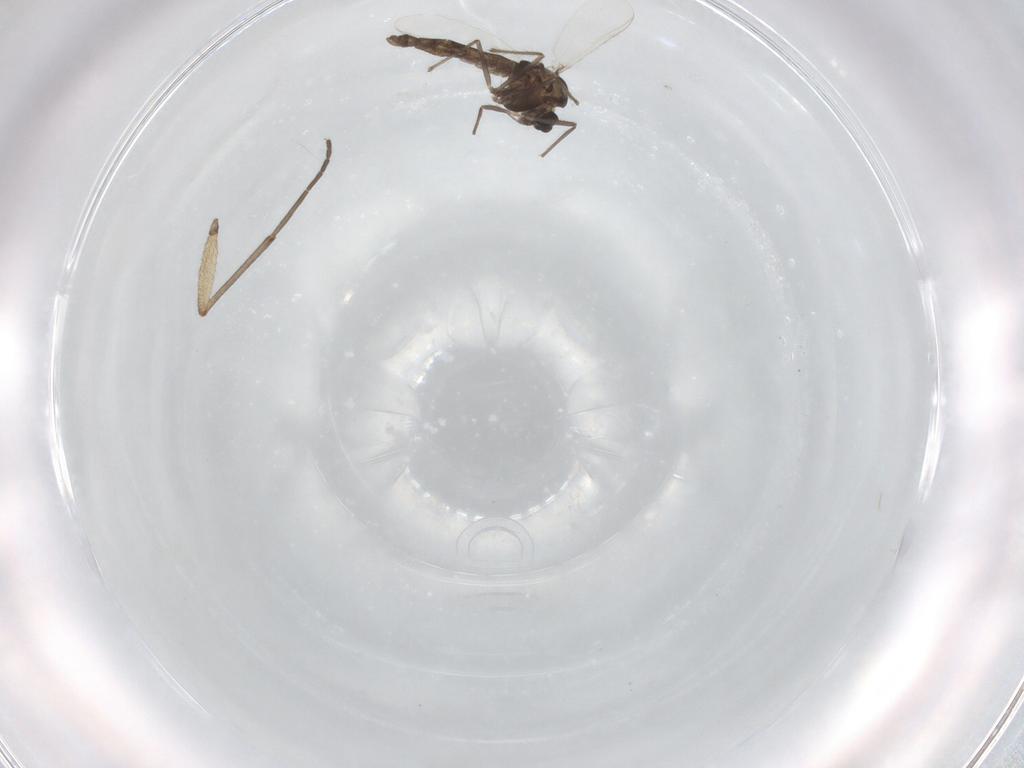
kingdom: Animalia
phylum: Arthropoda
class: Insecta
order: Diptera
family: Chironomidae
